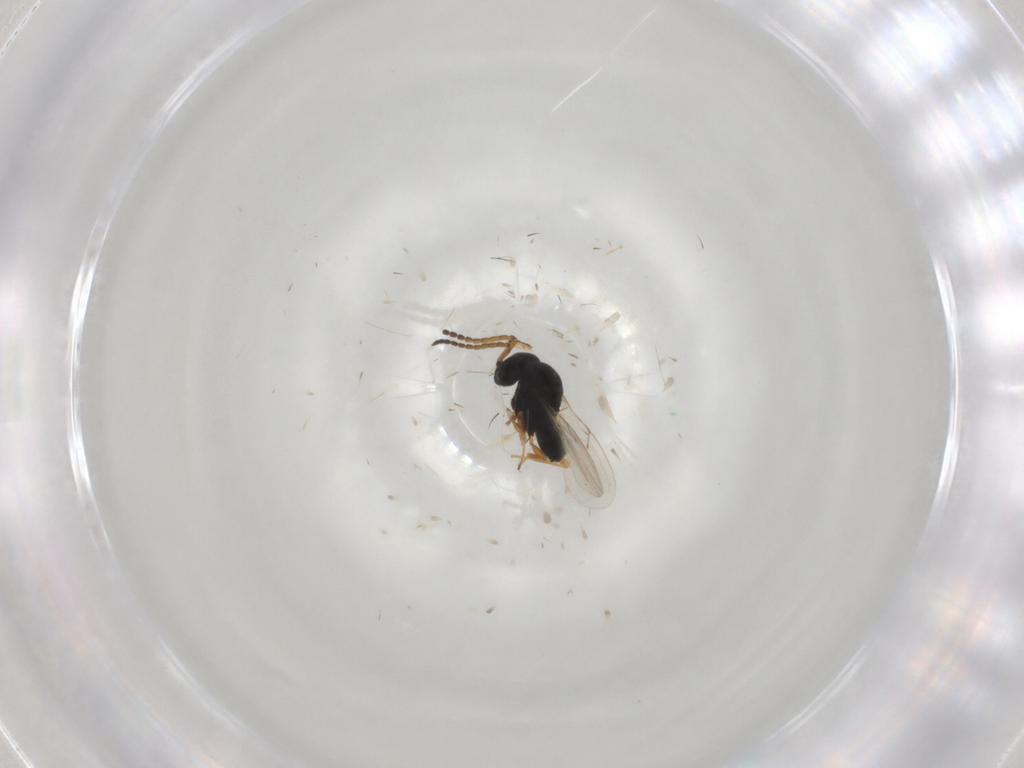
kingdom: Animalia
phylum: Arthropoda
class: Insecta
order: Hymenoptera
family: Scelionidae
